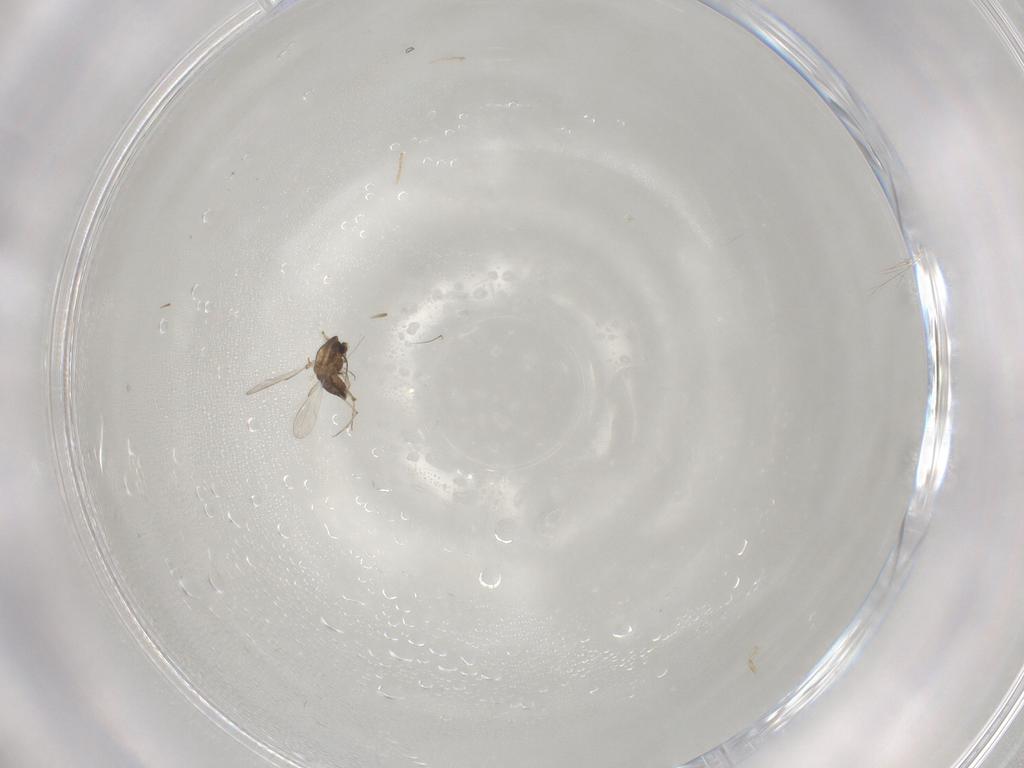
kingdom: Animalia
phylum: Arthropoda
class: Insecta
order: Diptera
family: Chironomidae
